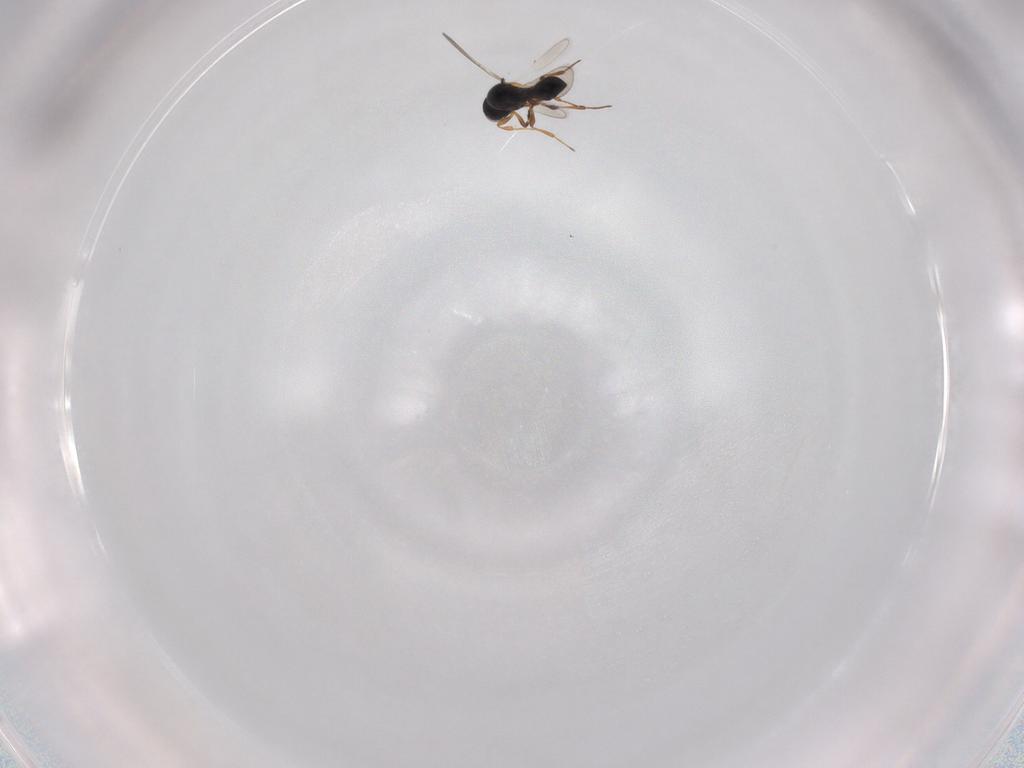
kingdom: Animalia
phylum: Arthropoda
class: Insecta
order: Hymenoptera
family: Platygastridae
